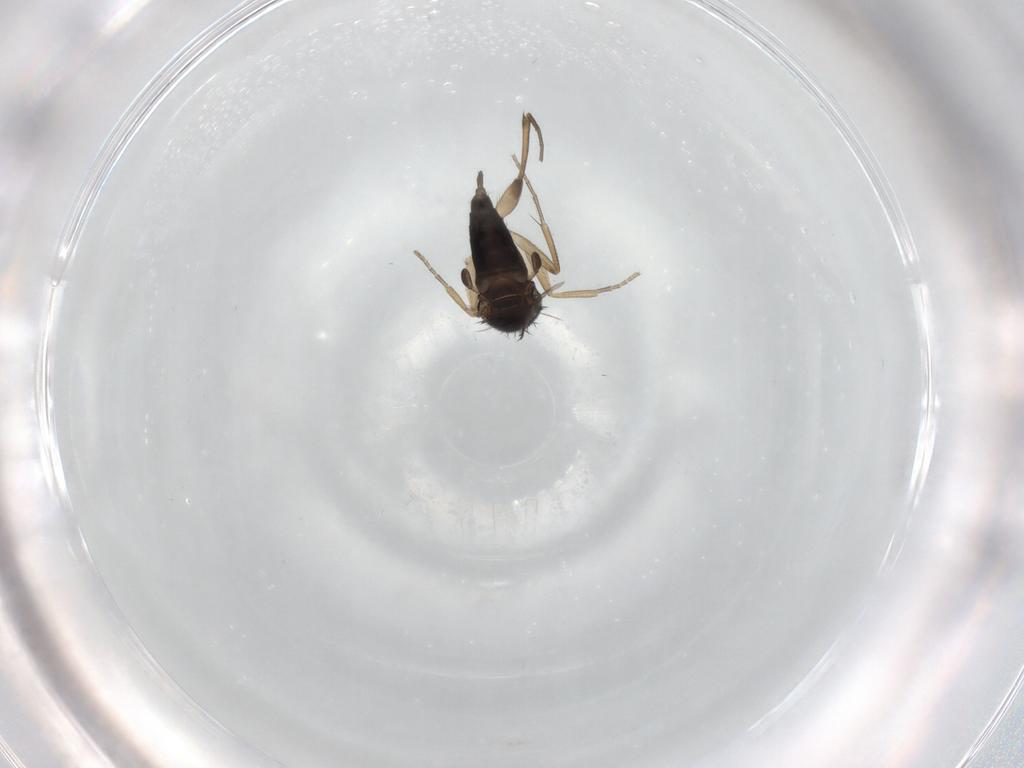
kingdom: Animalia
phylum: Arthropoda
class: Insecta
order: Diptera
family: Phoridae
